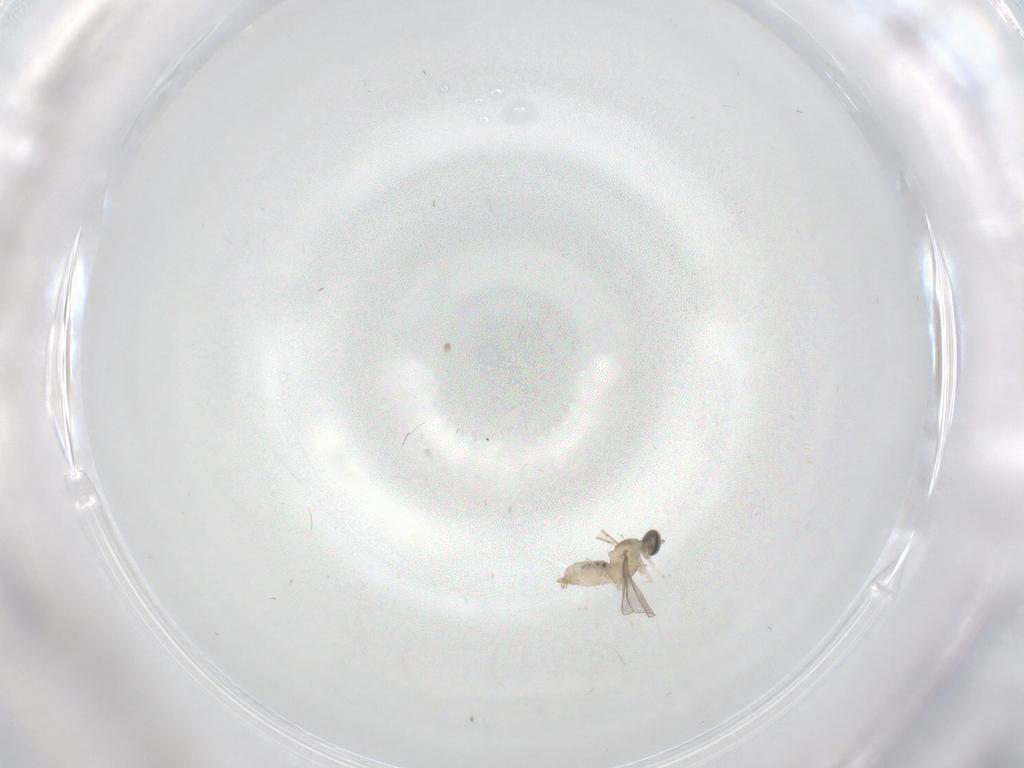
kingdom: Animalia
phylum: Arthropoda
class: Insecta
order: Diptera
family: Cecidomyiidae
